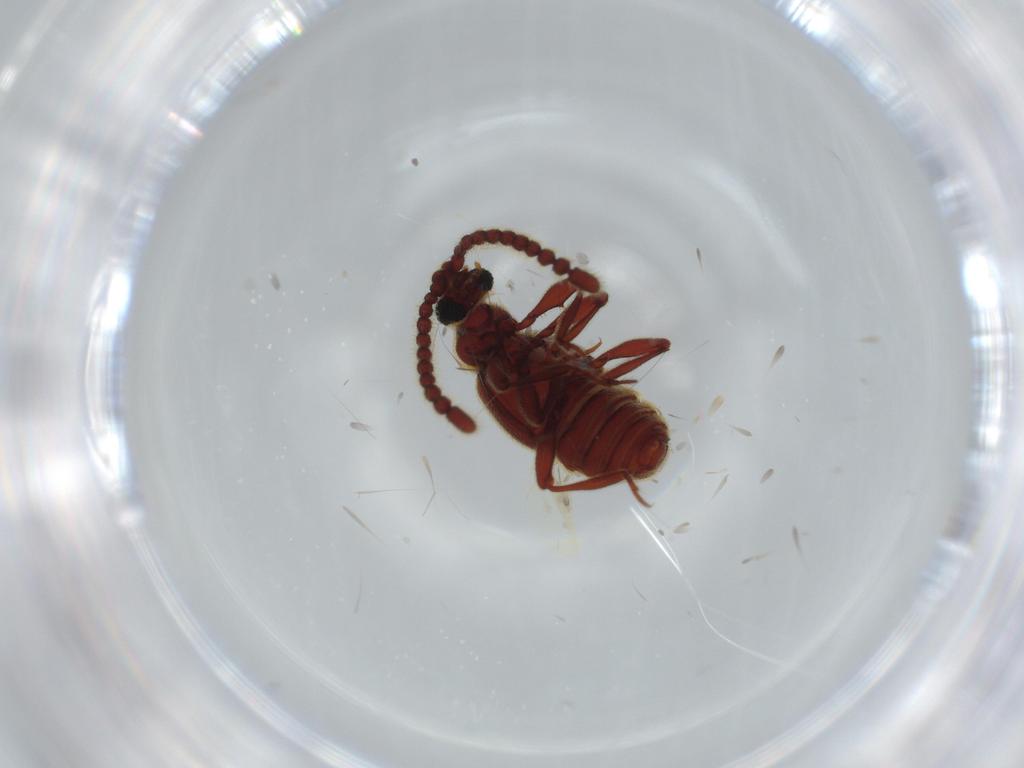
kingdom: Animalia
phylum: Arthropoda
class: Insecta
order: Coleoptera
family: Staphylinidae
